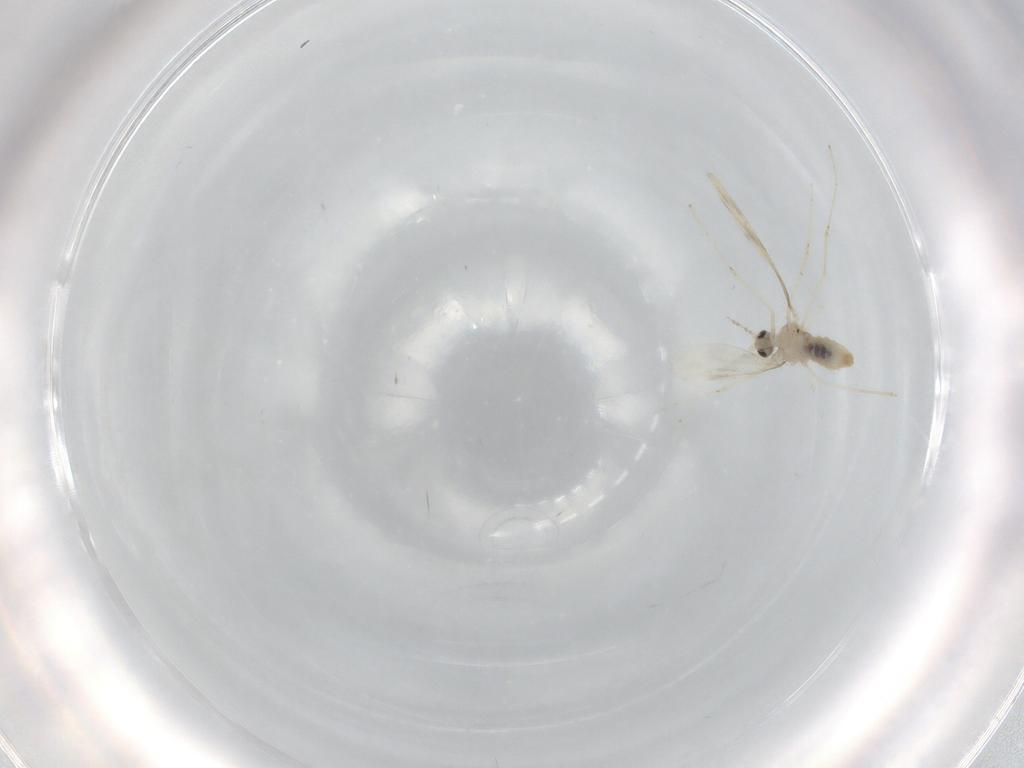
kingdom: Animalia
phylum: Arthropoda
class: Insecta
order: Diptera
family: Cecidomyiidae
